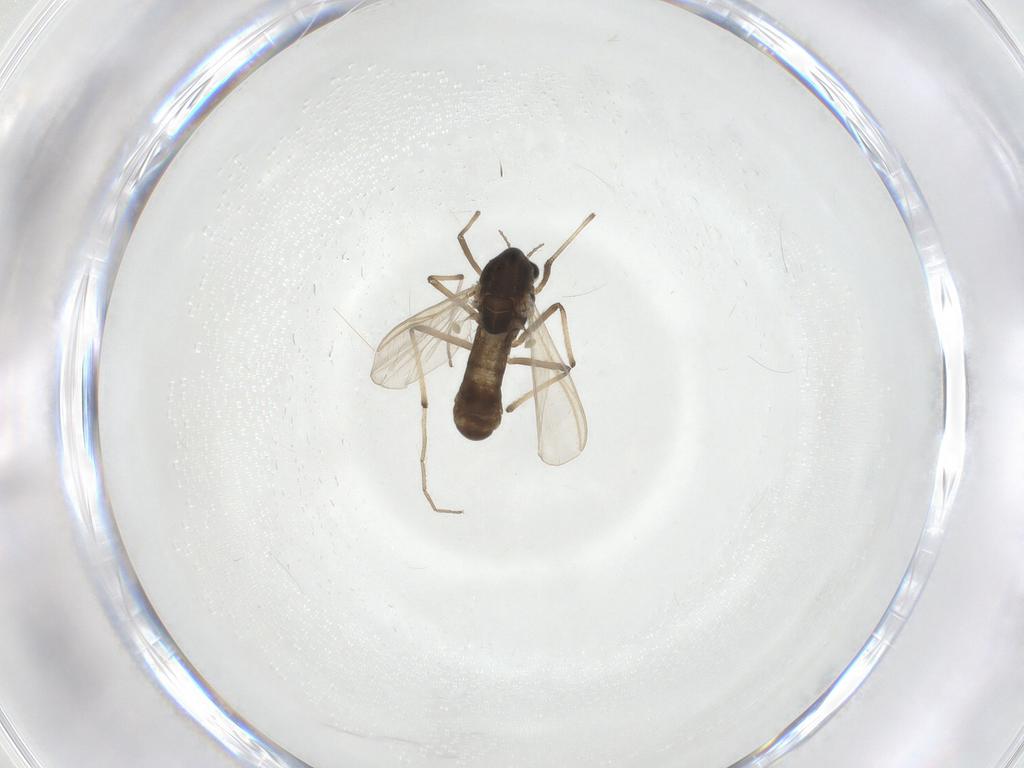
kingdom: Animalia
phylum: Arthropoda
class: Insecta
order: Diptera
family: Chironomidae
